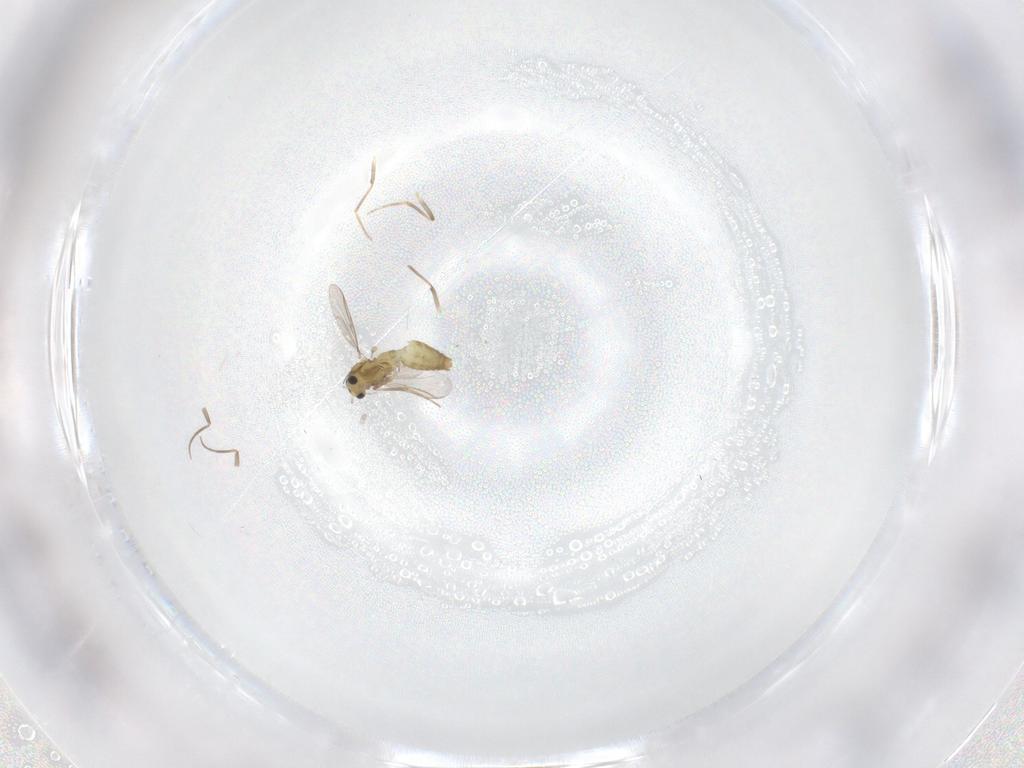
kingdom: Animalia
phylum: Arthropoda
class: Insecta
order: Diptera
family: Chironomidae
